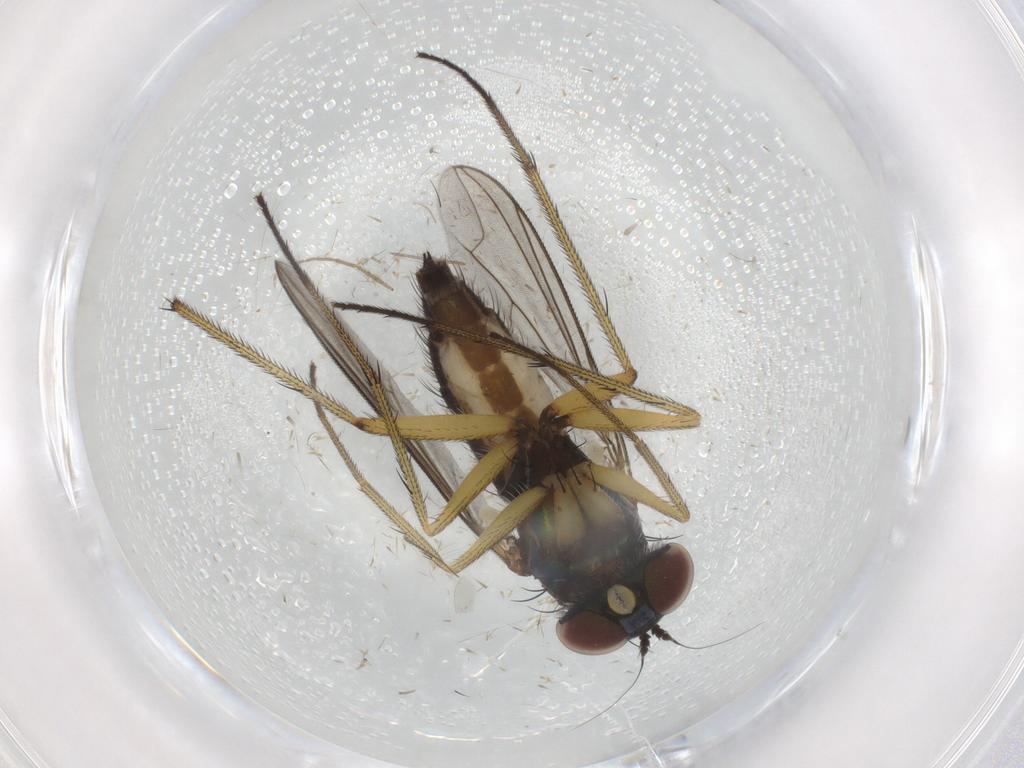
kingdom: Animalia
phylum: Arthropoda
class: Insecta
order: Diptera
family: Dolichopodidae
